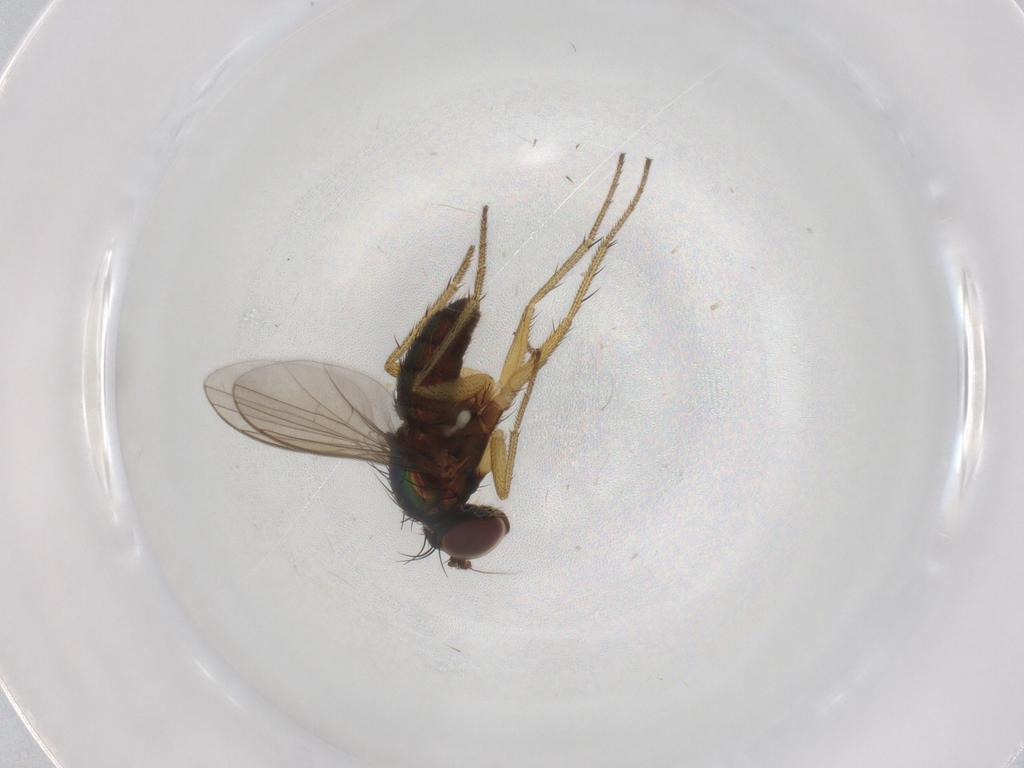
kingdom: Animalia
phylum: Arthropoda
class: Insecta
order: Diptera
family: Dolichopodidae
